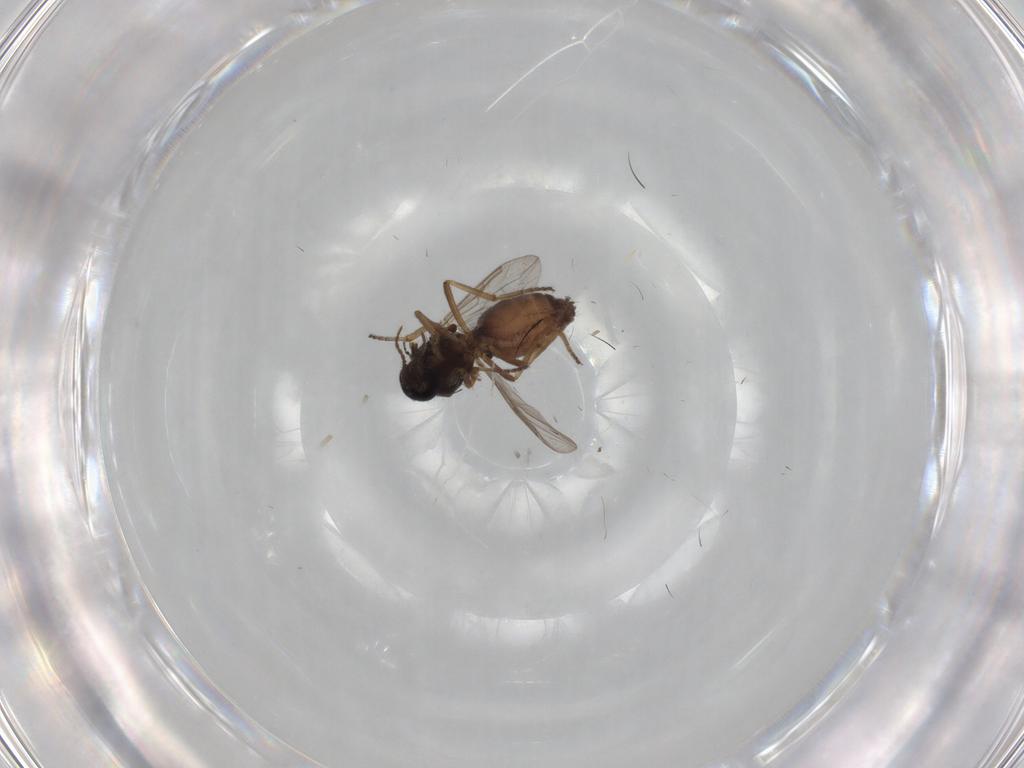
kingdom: Animalia
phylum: Arthropoda
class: Insecta
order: Diptera
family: Ceratopogonidae
